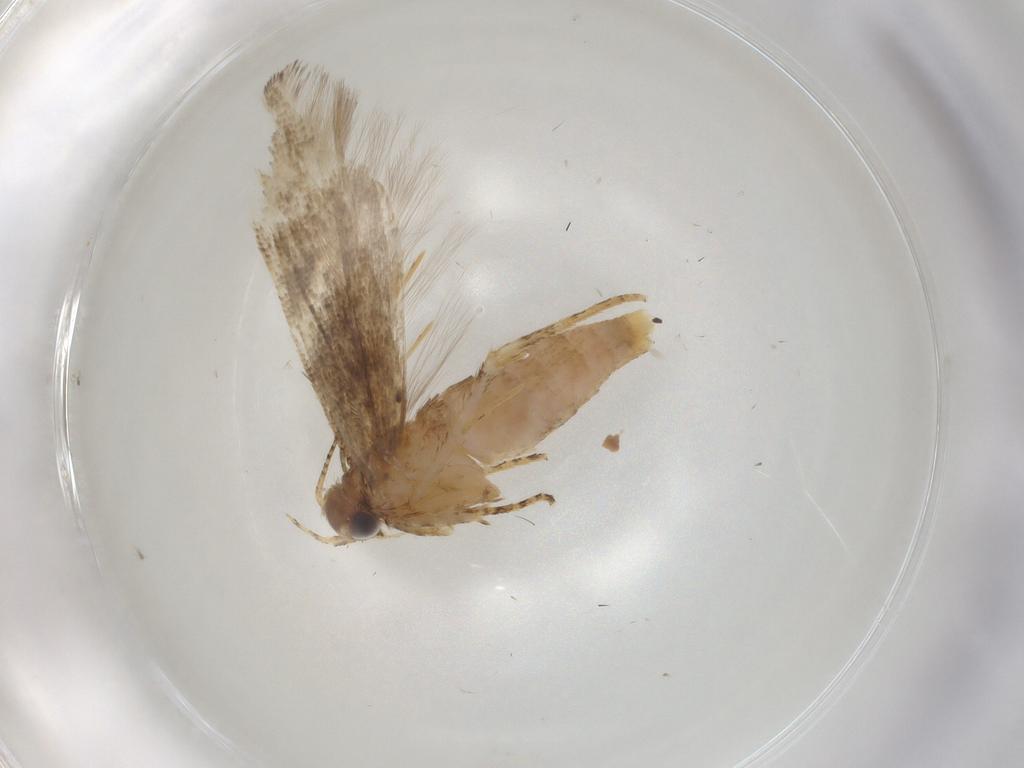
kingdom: Animalia
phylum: Arthropoda
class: Insecta
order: Lepidoptera
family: Gelechiidae
